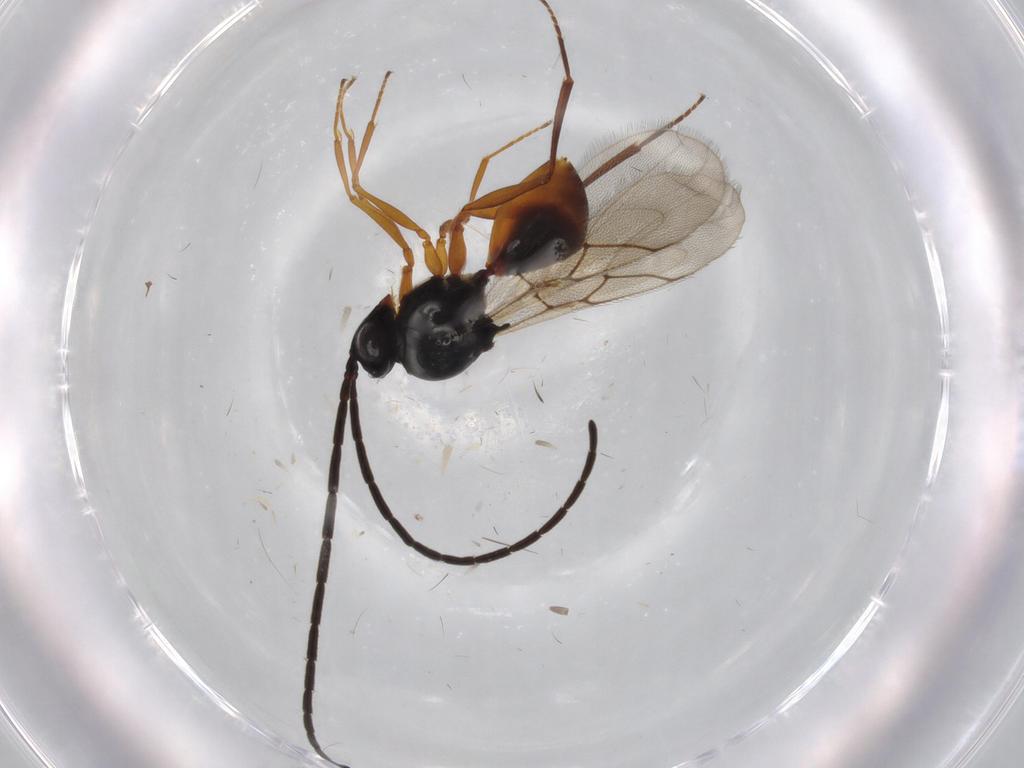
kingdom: Animalia
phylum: Arthropoda
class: Insecta
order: Hymenoptera
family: Figitidae
